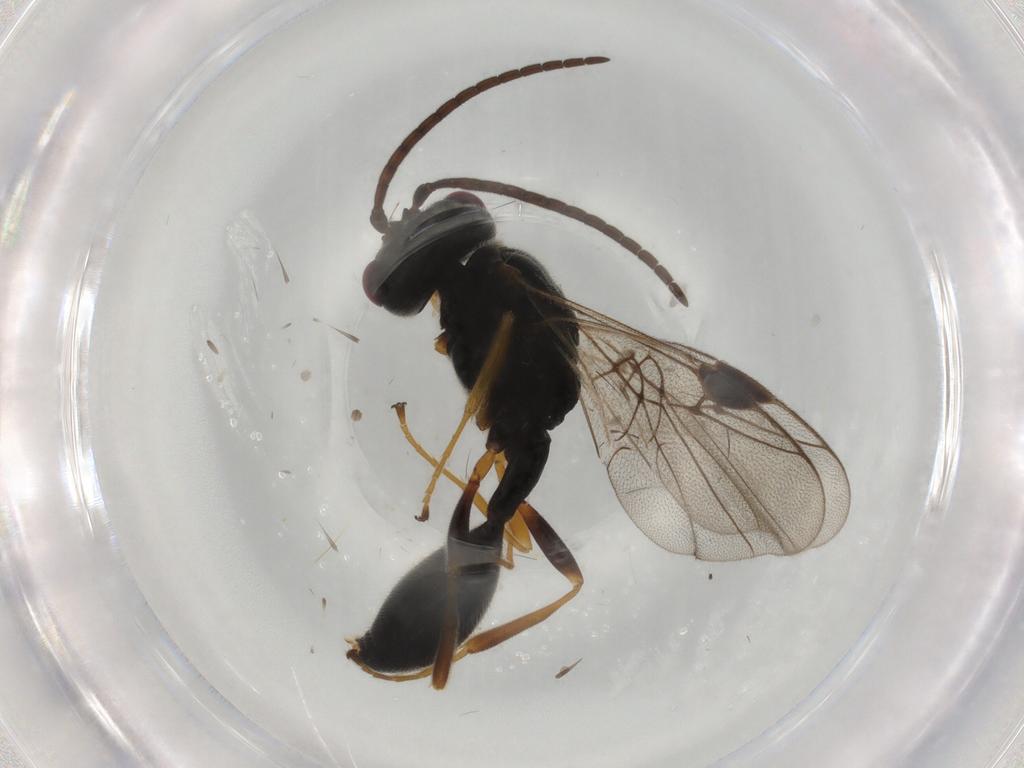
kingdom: Animalia
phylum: Arthropoda
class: Insecta
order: Hymenoptera
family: Heloridae
